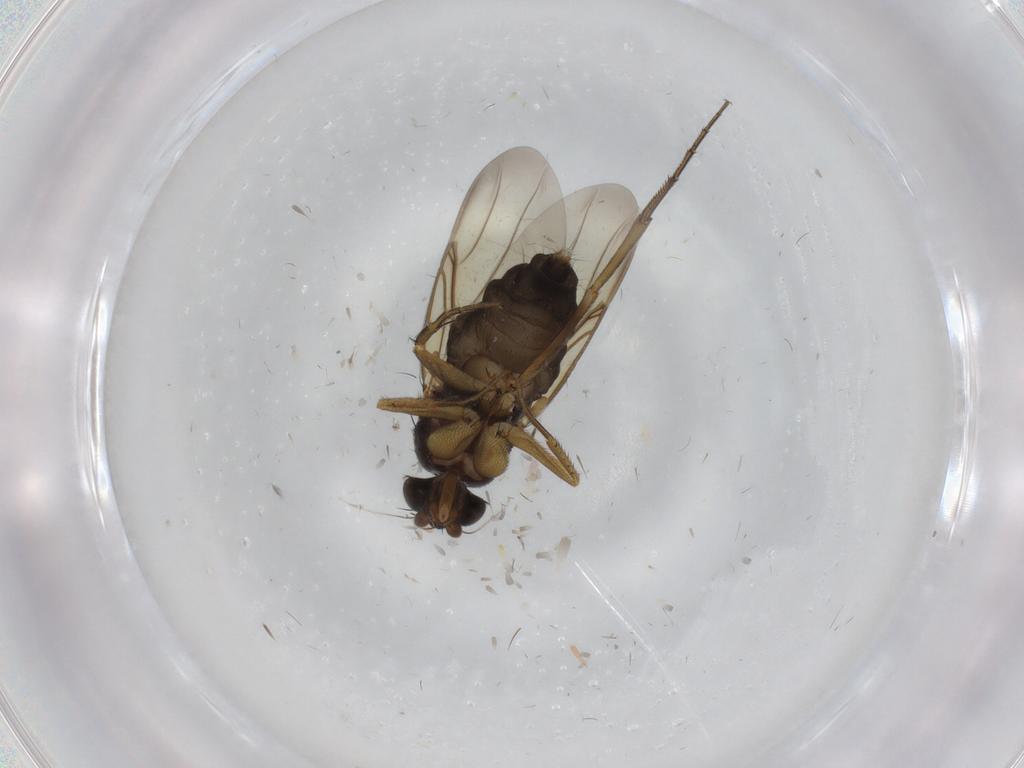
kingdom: Animalia
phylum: Arthropoda
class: Insecta
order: Diptera
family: Phoridae
